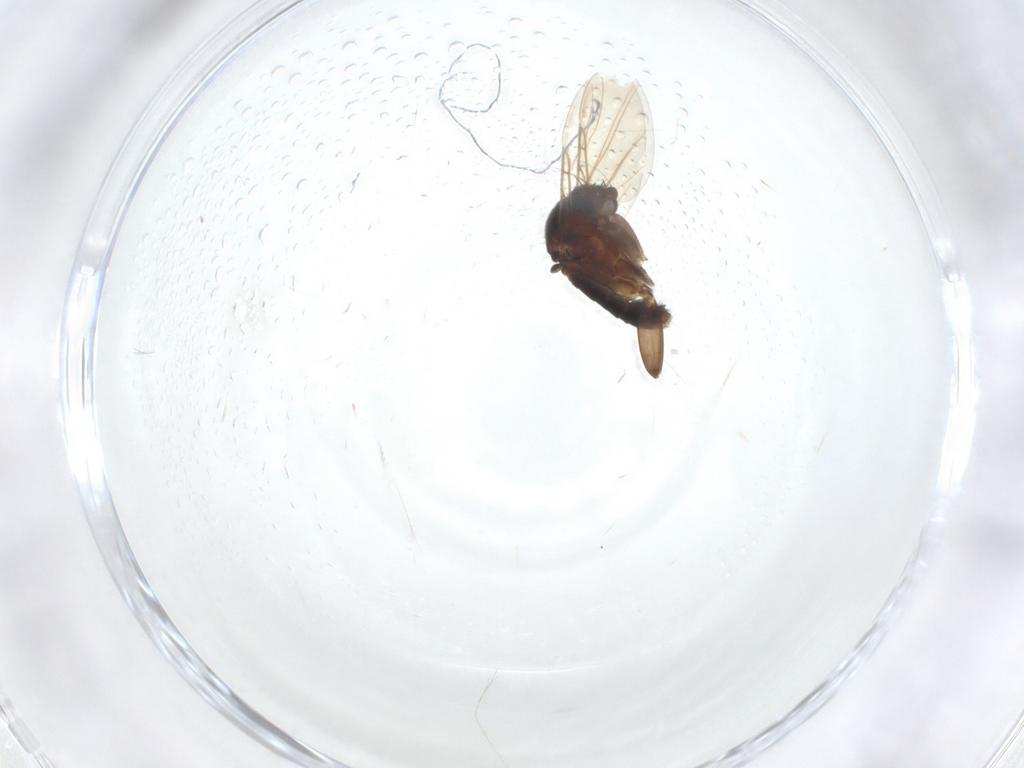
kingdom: Animalia
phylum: Arthropoda
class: Insecta
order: Diptera
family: Phoridae
